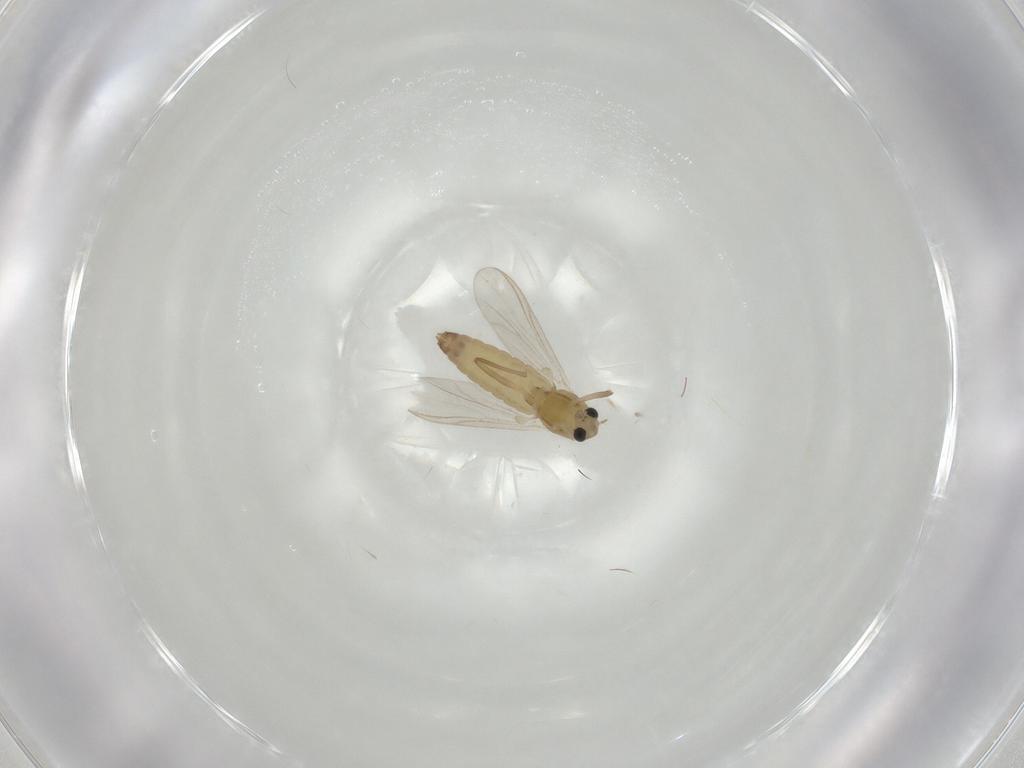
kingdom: Animalia
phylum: Arthropoda
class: Insecta
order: Diptera
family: Chironomidae
